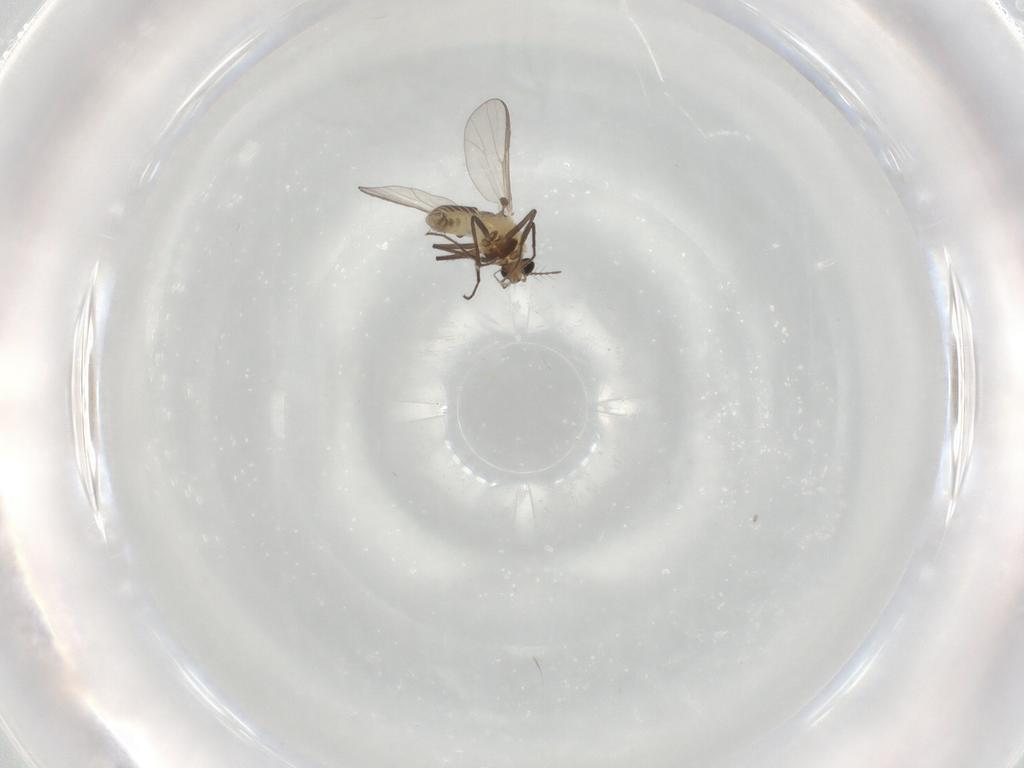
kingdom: Animalia
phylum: Arthropoda
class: Insecta
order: Diptera
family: Chironomidae
